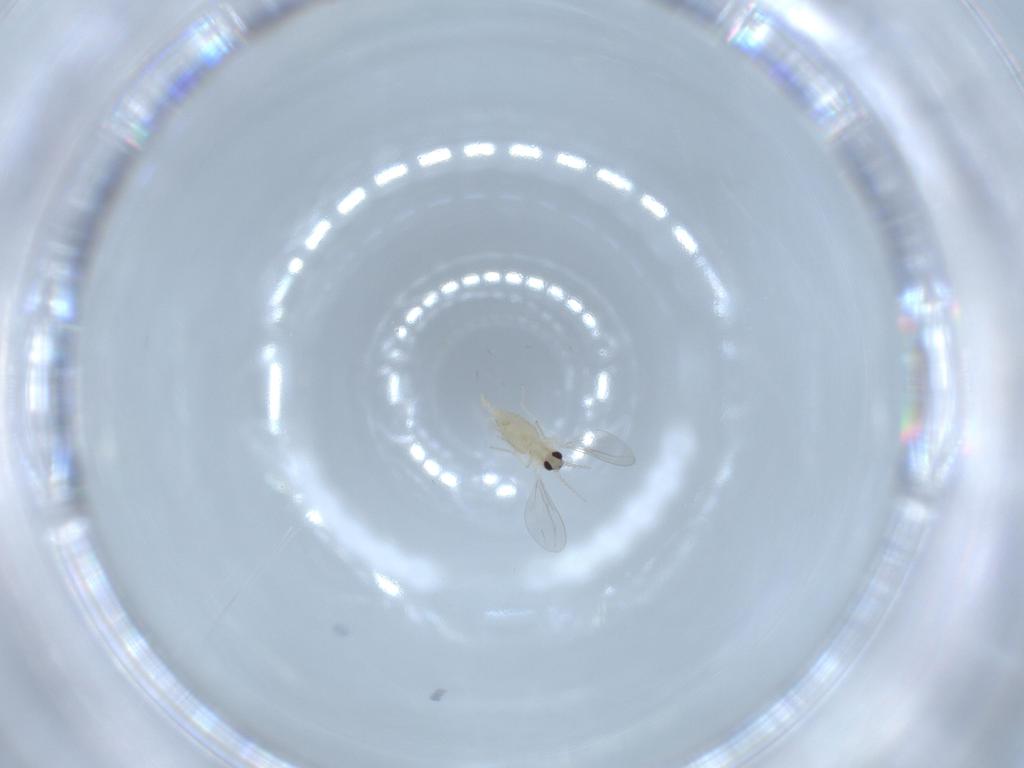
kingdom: Animalia
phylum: Arthropoda
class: Insecta
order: Diptera
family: Cecidomyiidae
